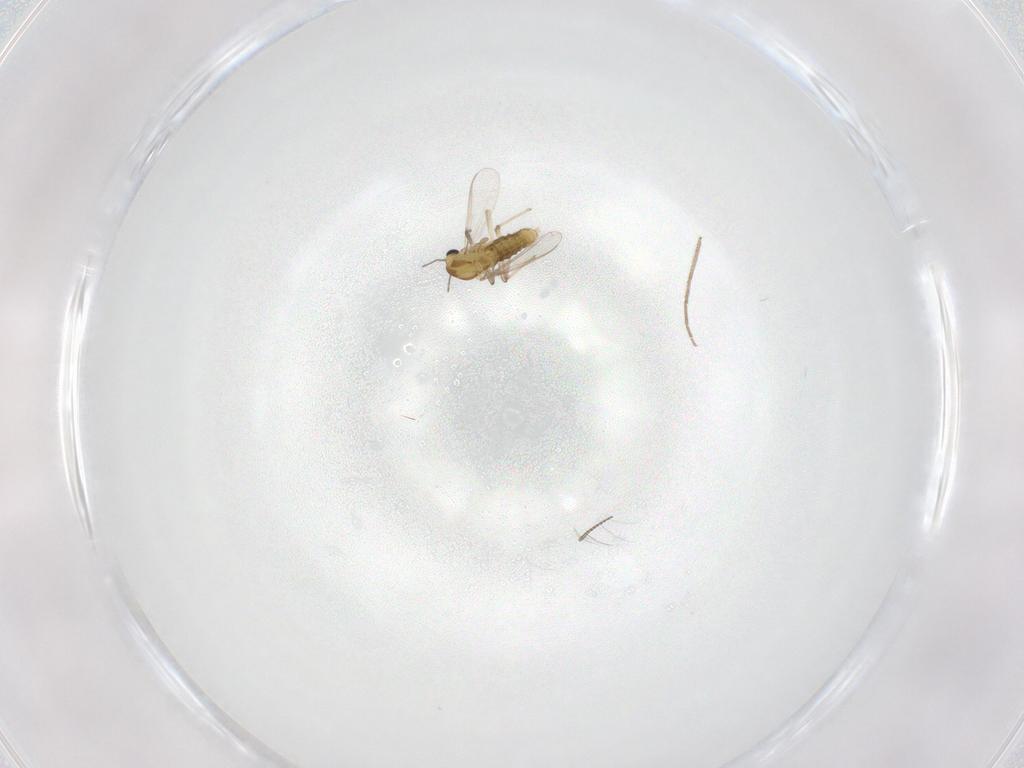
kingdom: Animalia
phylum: Arthropoda
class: Insecta
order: Diptera
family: Chironomidae
